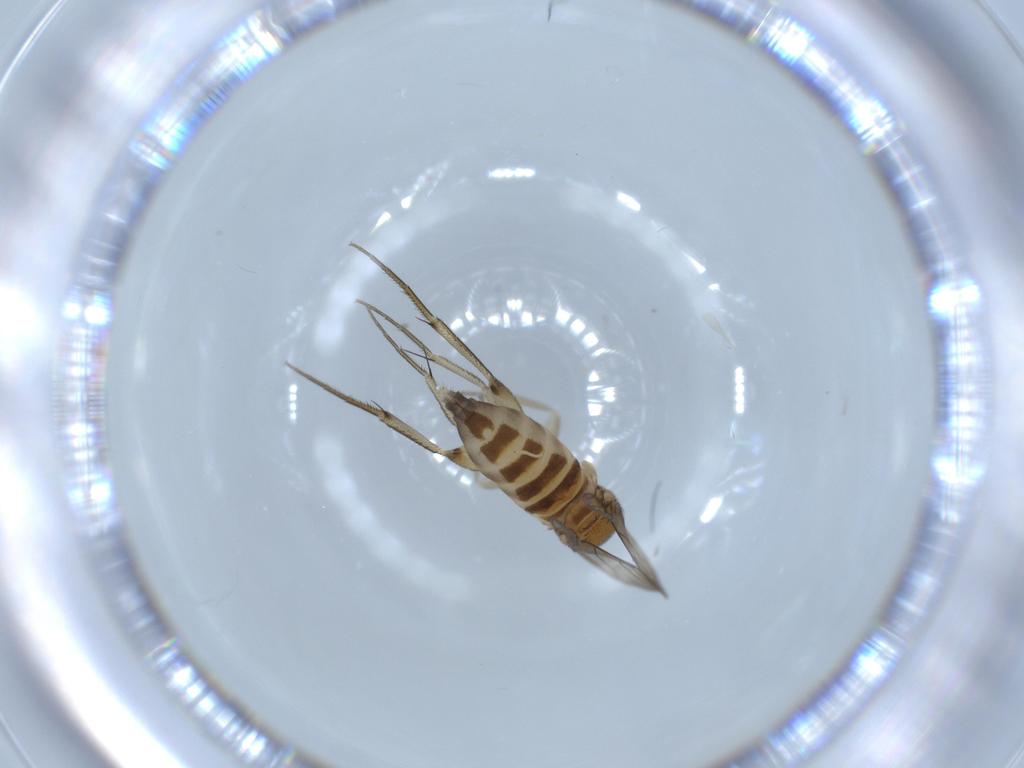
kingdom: Animalia
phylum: Arthropoda
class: Insecta
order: Diptera
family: Phoridae
